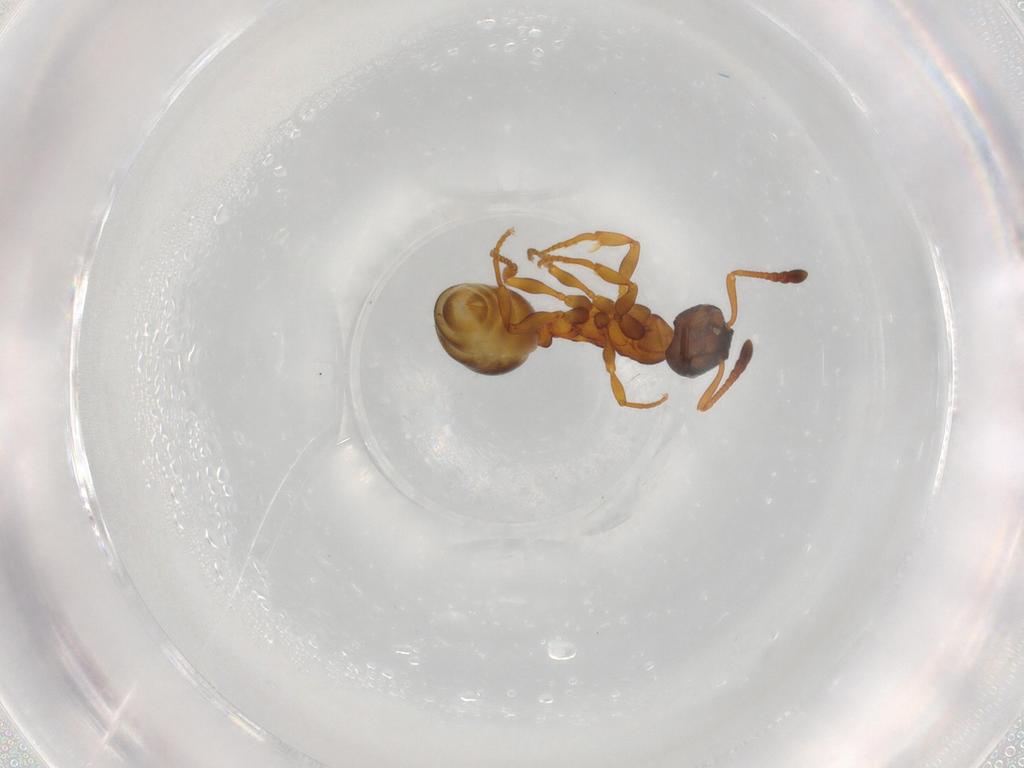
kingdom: Animalia
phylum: Arthropoda
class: Insecta
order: Hymenoptera
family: Formicidae
